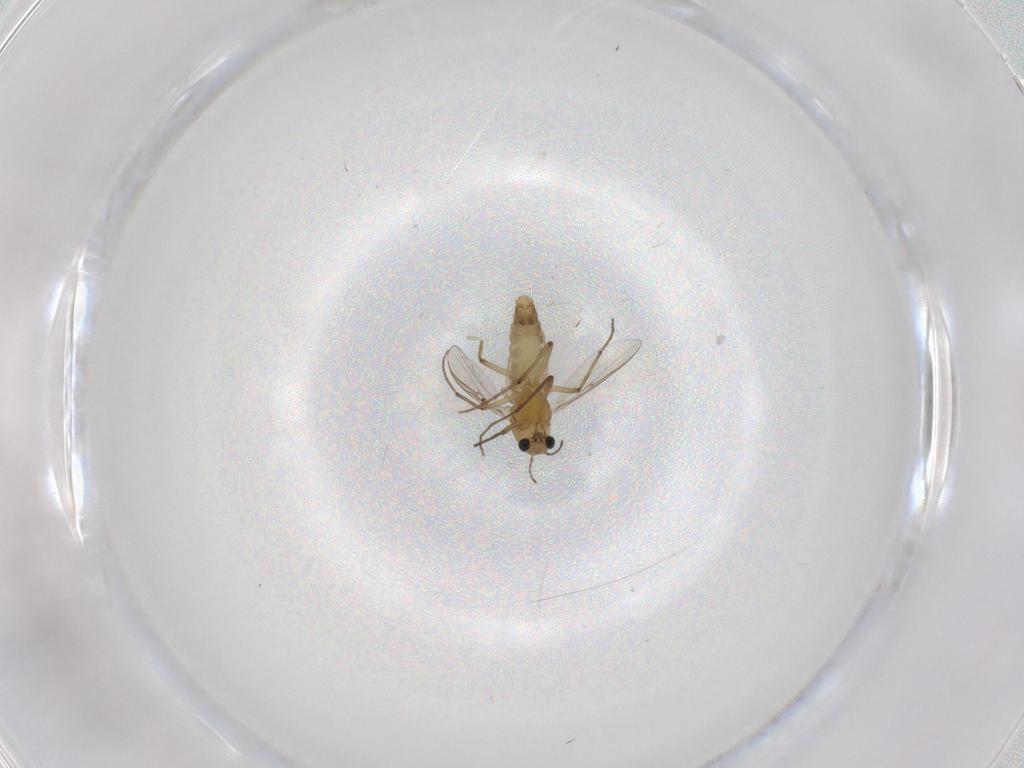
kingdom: Animalia
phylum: Arthropoda
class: Insecta
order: Diptera
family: Chironomidae
